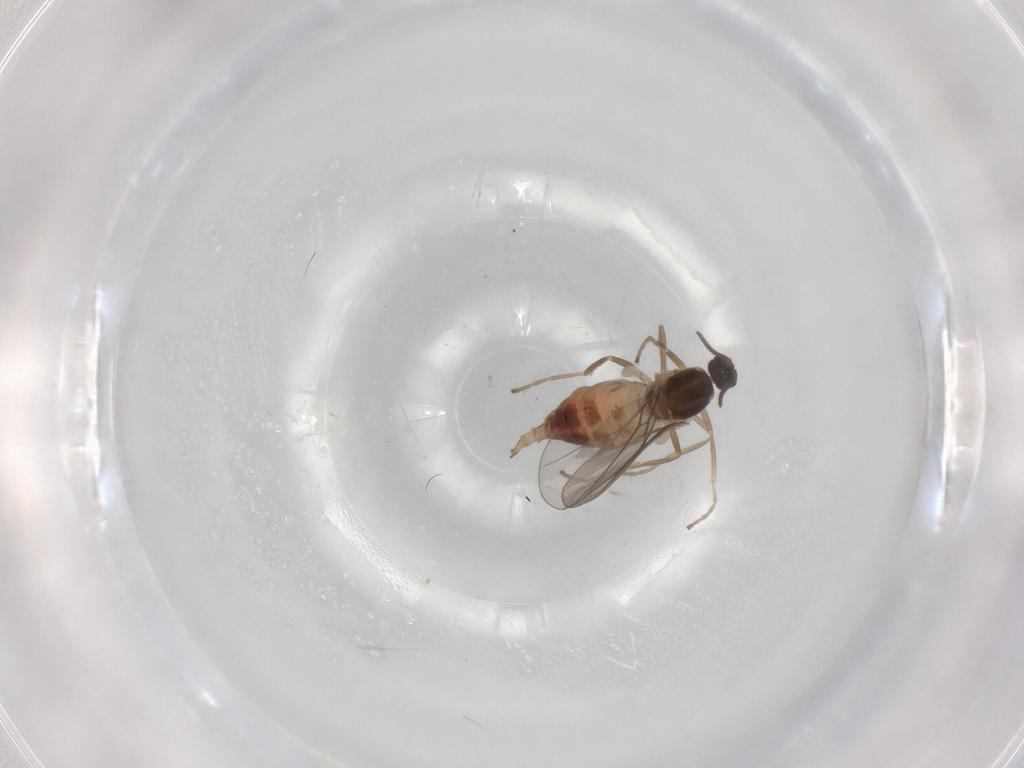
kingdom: Animalia
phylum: Arthropoda
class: Insecta
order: Diptera
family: Cecidomyiidae
